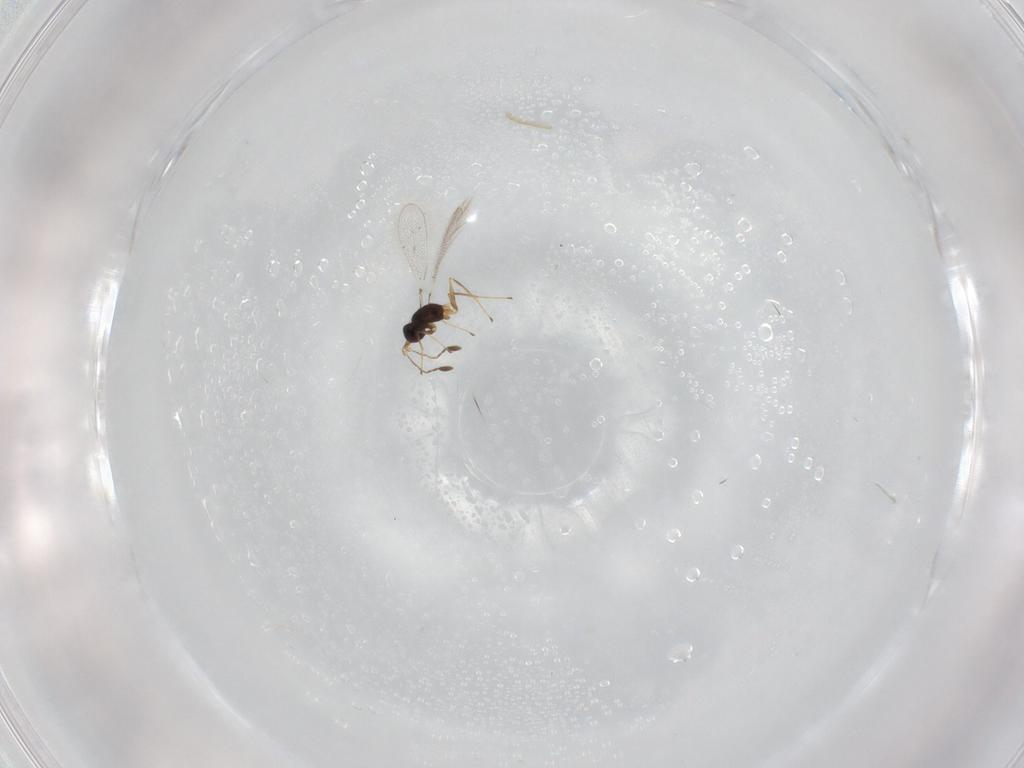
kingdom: Animalia
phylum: Arthropoda
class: Insecta
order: Hymenoptera
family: Mymaridae
